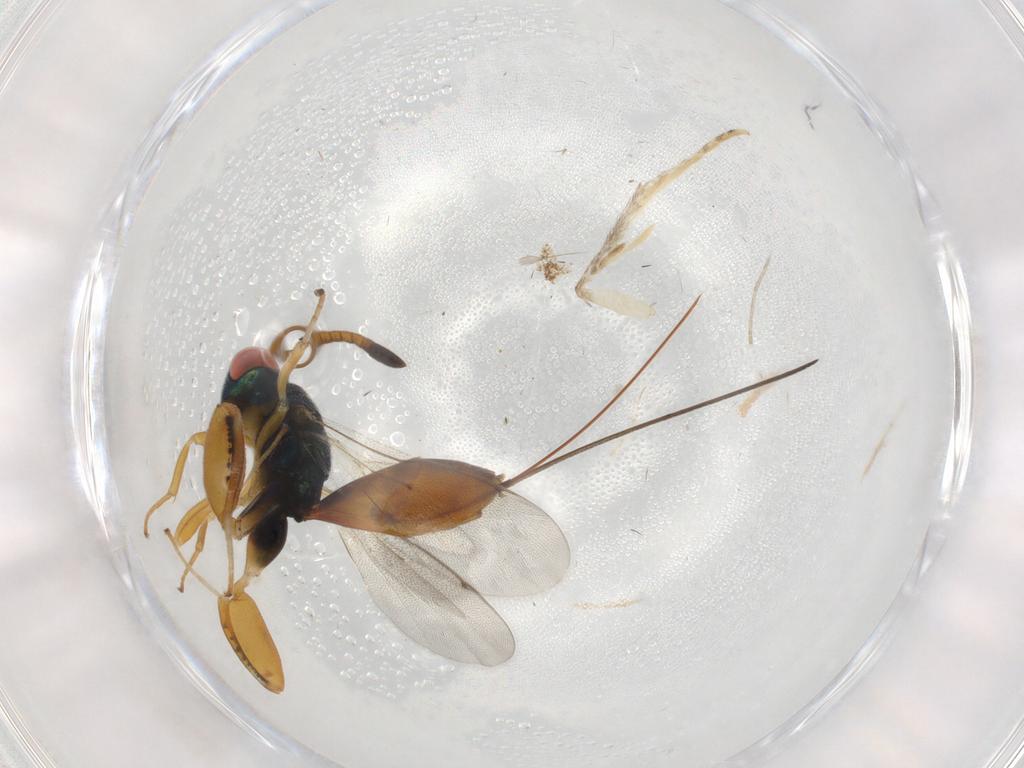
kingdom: Animalia
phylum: Arthropoda
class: Insecta
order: Hymenoptera
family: Torymidae
